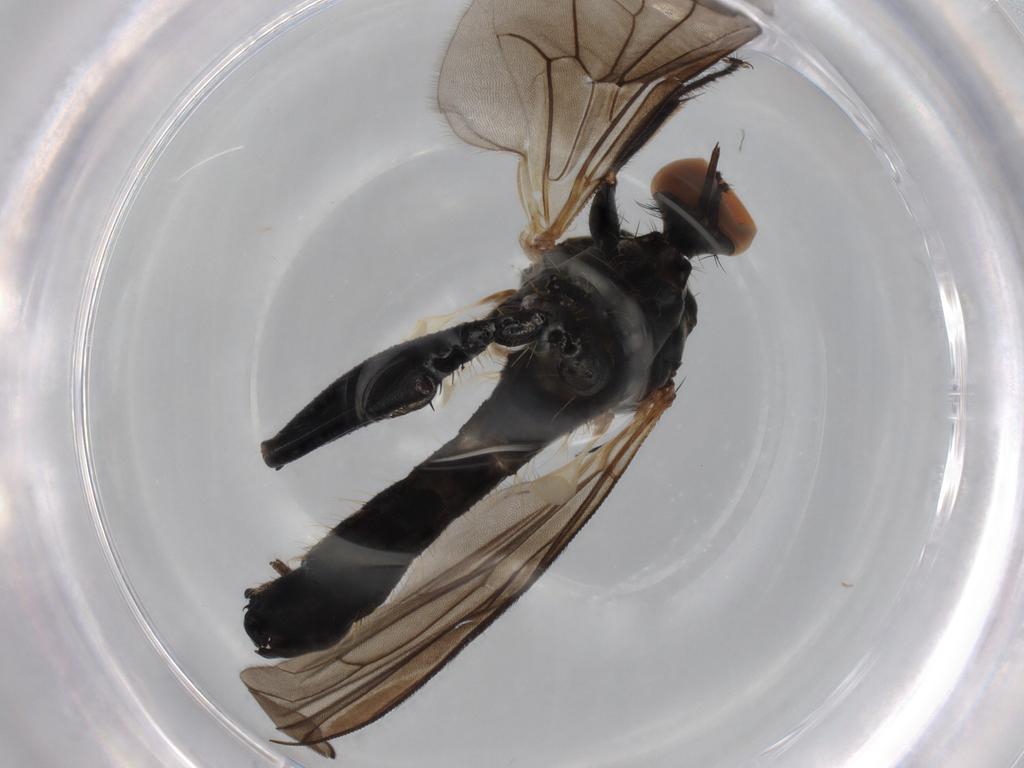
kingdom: Animalia
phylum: Arthropoda
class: Insecta
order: Diptera
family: Hybotidae
